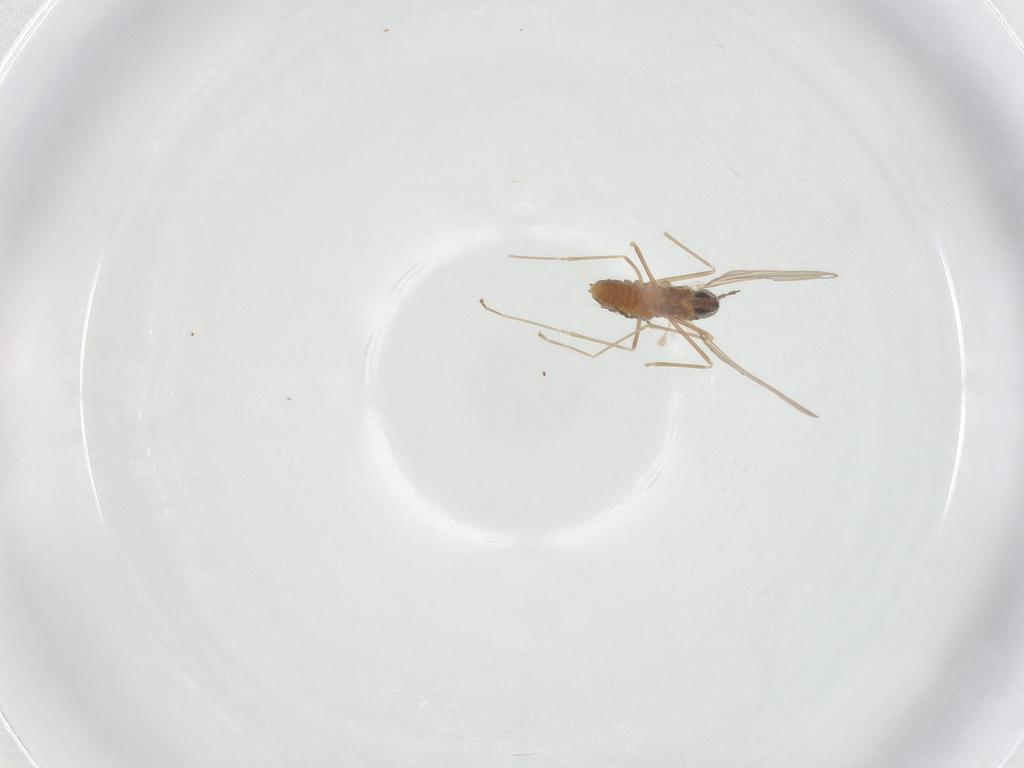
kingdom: Animalia
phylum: Arthropoda
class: Insecta
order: Diptera
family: Cecidomyiidae
